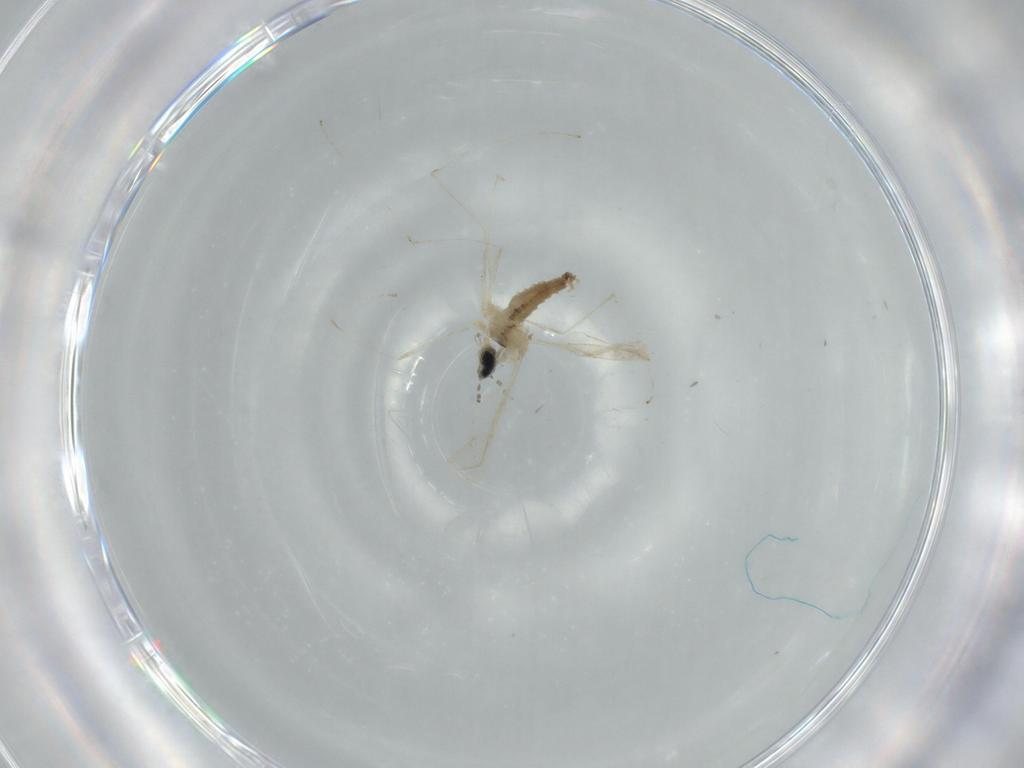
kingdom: Animalia
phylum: Arthropoda
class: Insecta
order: Diptera
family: Cecidomyiidae
